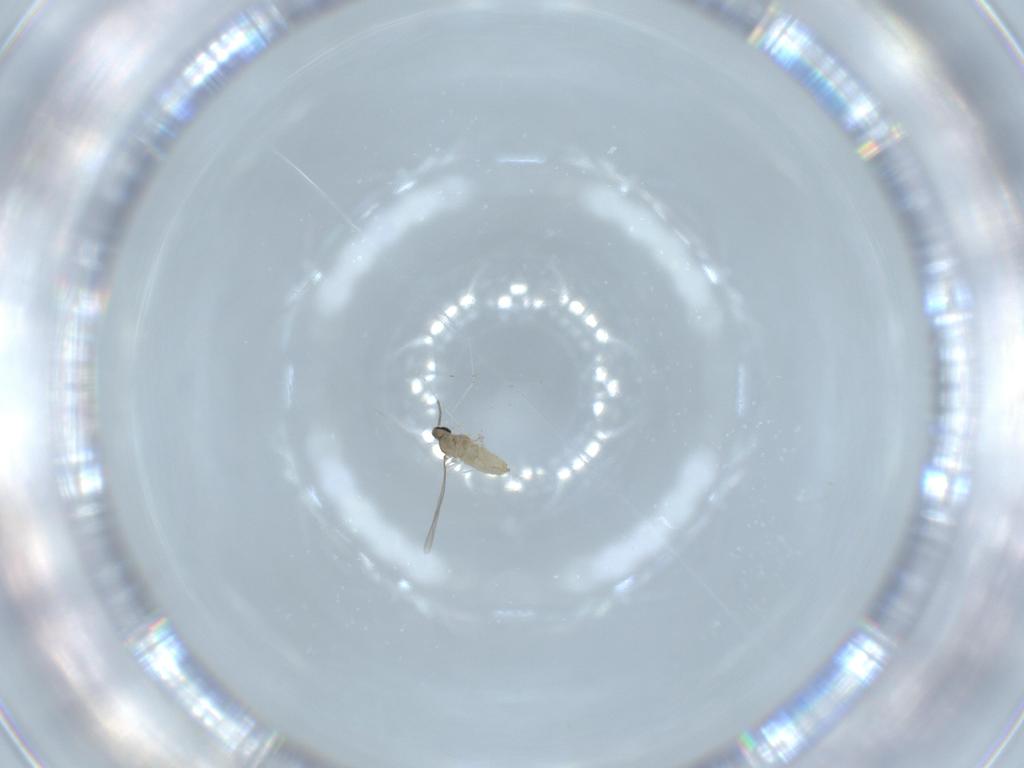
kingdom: Animalia
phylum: Arthropoda
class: Insecta
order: Diptera
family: Cecidomyiidae
